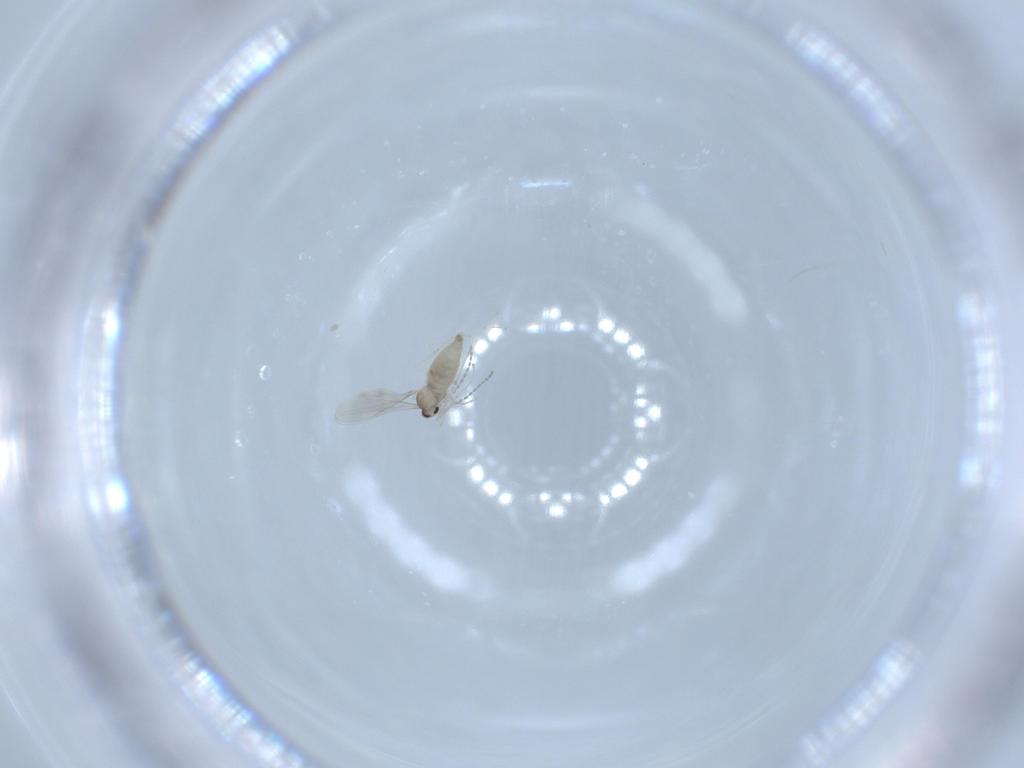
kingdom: Animalia
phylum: Arthropoda
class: Insecta
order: Diptera
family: Cecidomyiidae
